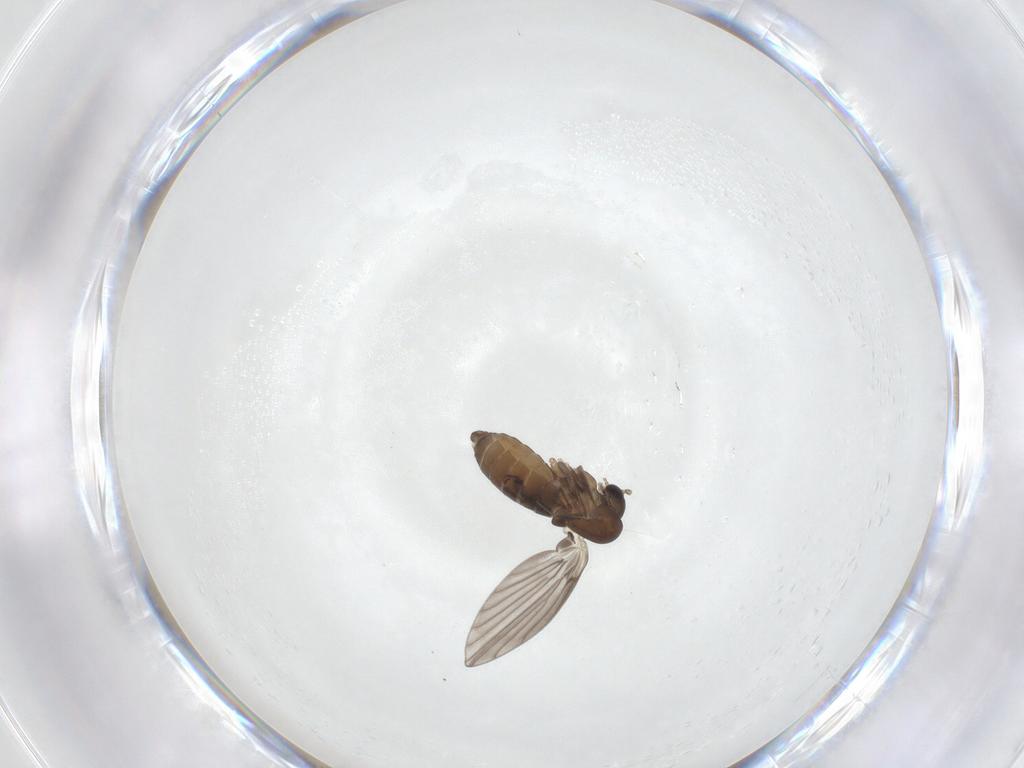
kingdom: Animalia
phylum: Arthropoda
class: Insecta
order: Diptera
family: Psychodidae
